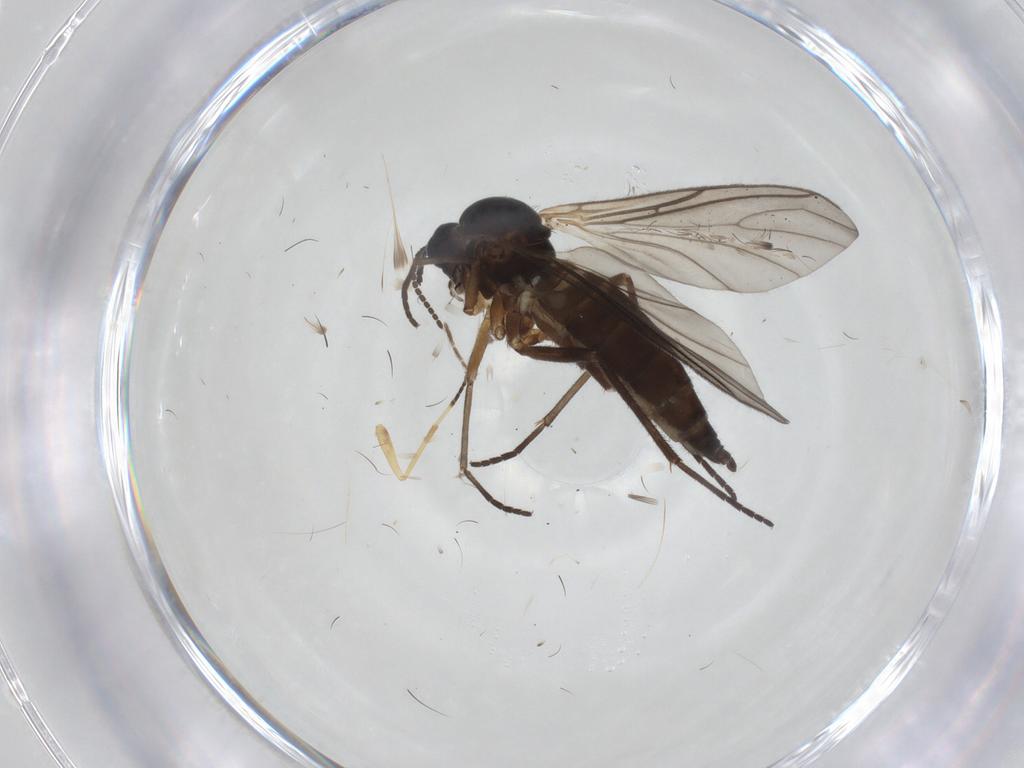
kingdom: Animalia
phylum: Arthropoda
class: Insecta
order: Diptera
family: Sciaridae
